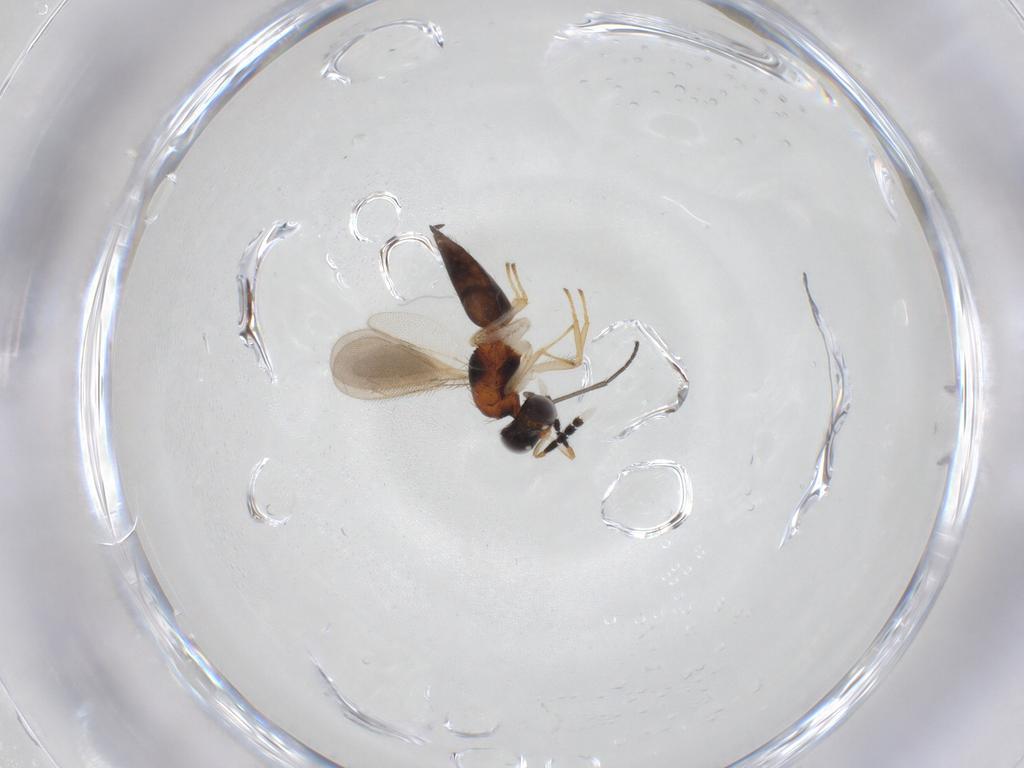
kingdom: Animalia
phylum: Arthropoda
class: Insecta
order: Hymenoptera
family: Eulophidae
